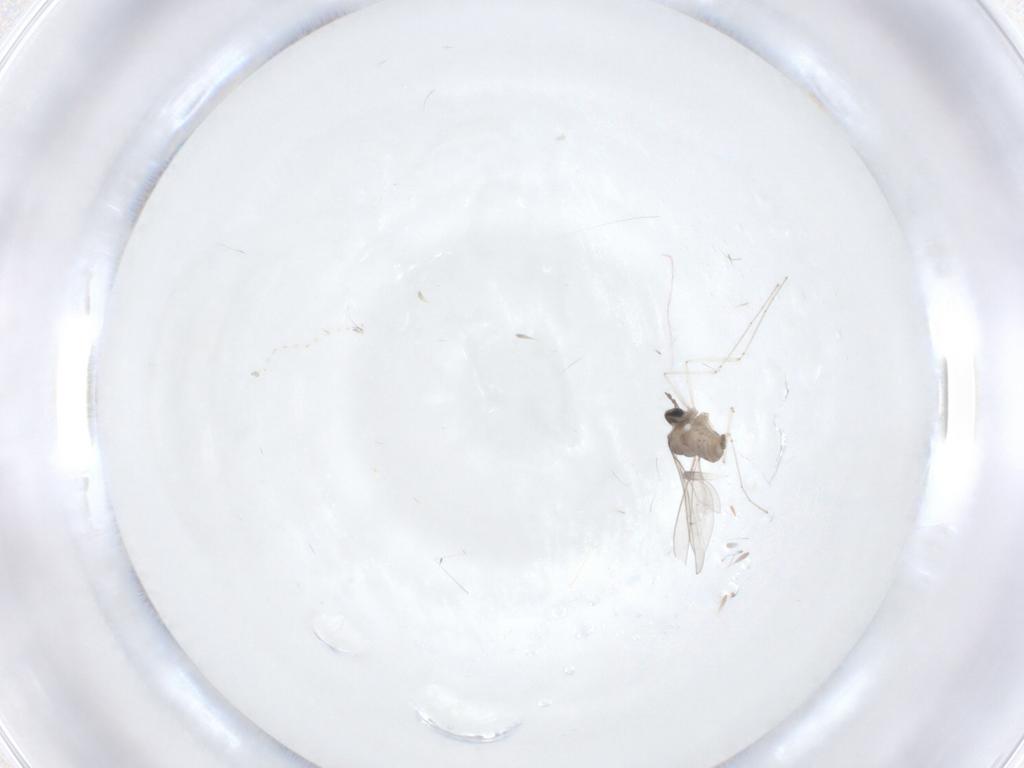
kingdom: Animalia
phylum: Arthropoda
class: Insecta
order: Diptera
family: Cecidomyiidae
